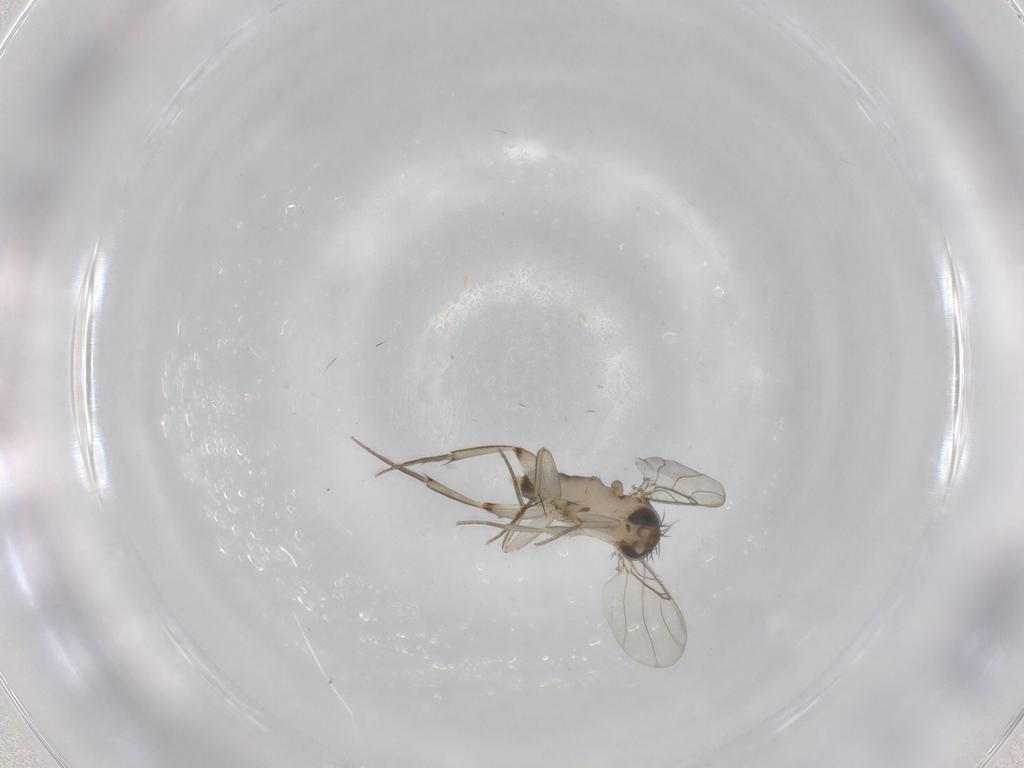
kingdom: Animalia
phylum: Arthropoda
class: Insecta
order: Diptera
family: Phoridae
